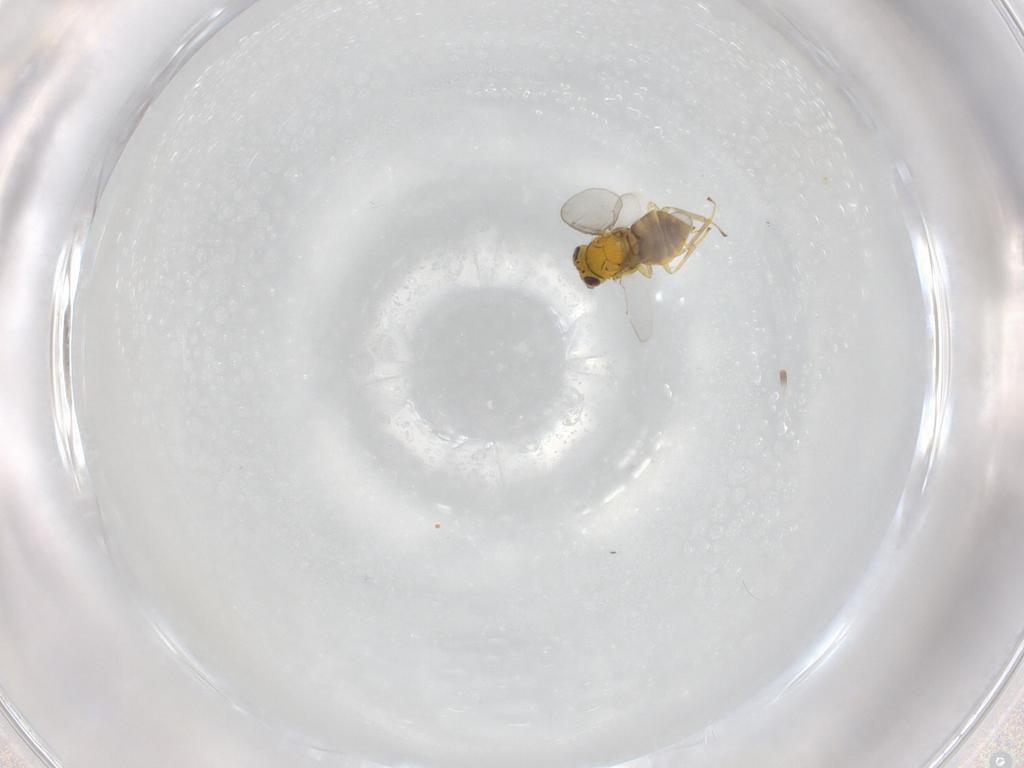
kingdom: Animalia
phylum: Arthropoda
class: Insecta
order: Hymenoptera
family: Aphelinidae
